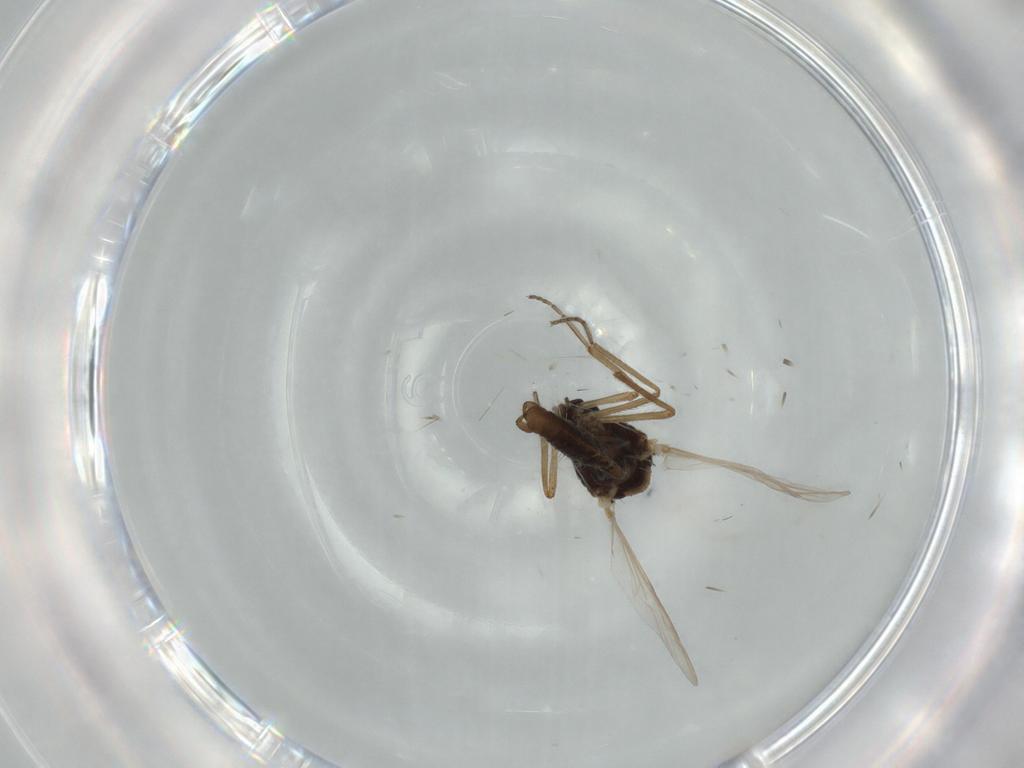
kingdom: Animalia
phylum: Arthropoda
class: Insecta
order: Diptera
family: Ceratopogonidae
